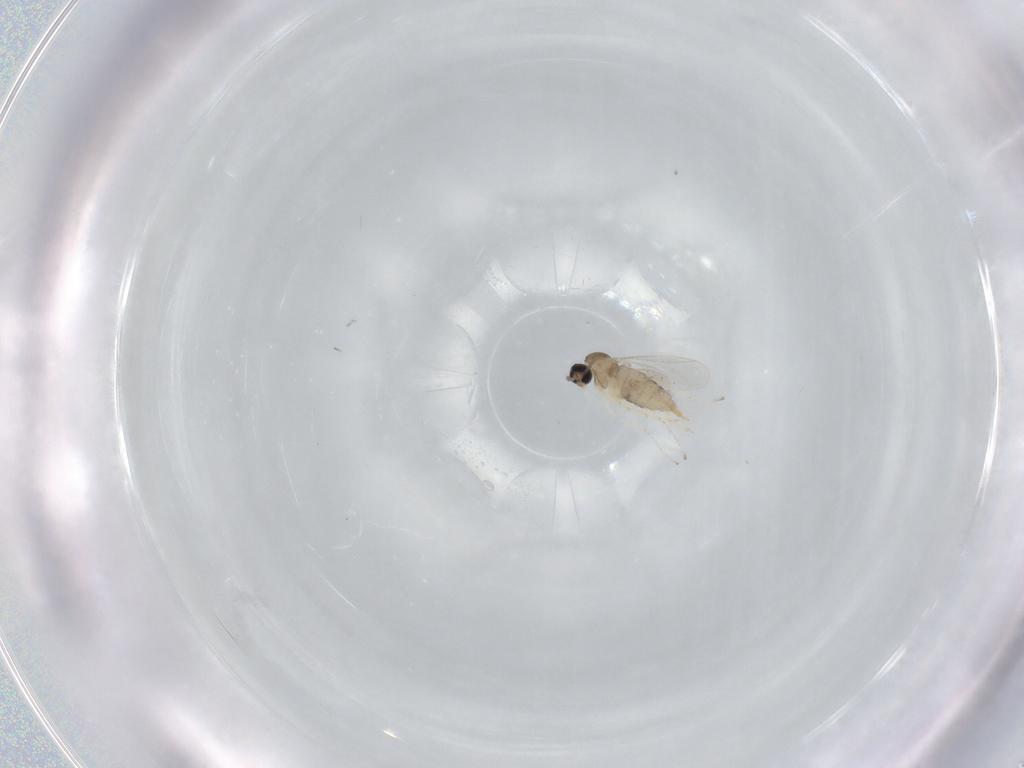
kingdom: Animalia
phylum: Arthropoda
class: Insecta
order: Diptera
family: Cecidomyiidae
